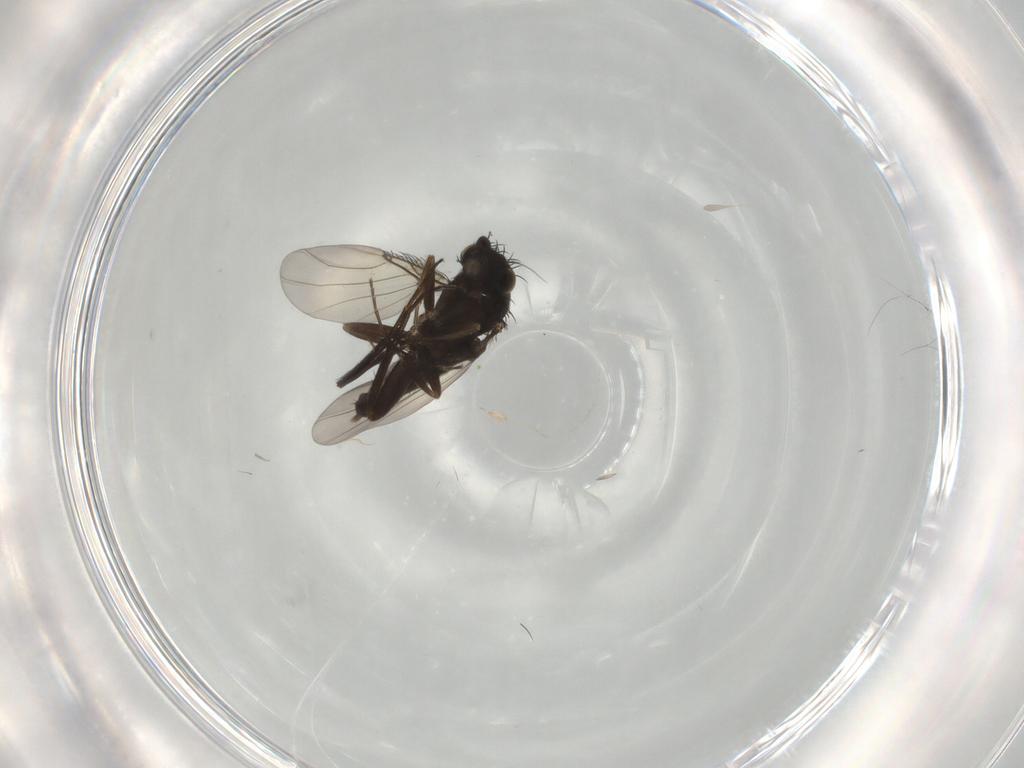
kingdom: Animalia
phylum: Arthropoda
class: Insecta
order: Diptera
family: Phoridae
